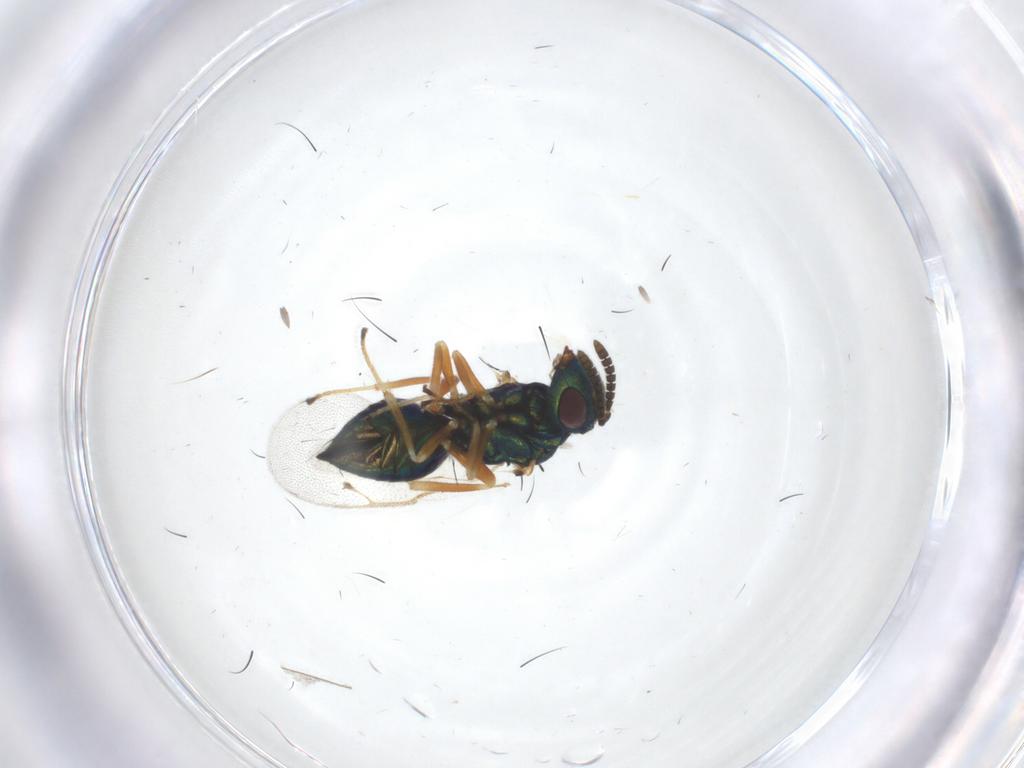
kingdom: Animalia
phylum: Arthropoda
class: Insecta
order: Hymenoptera
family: Pteromalidae
